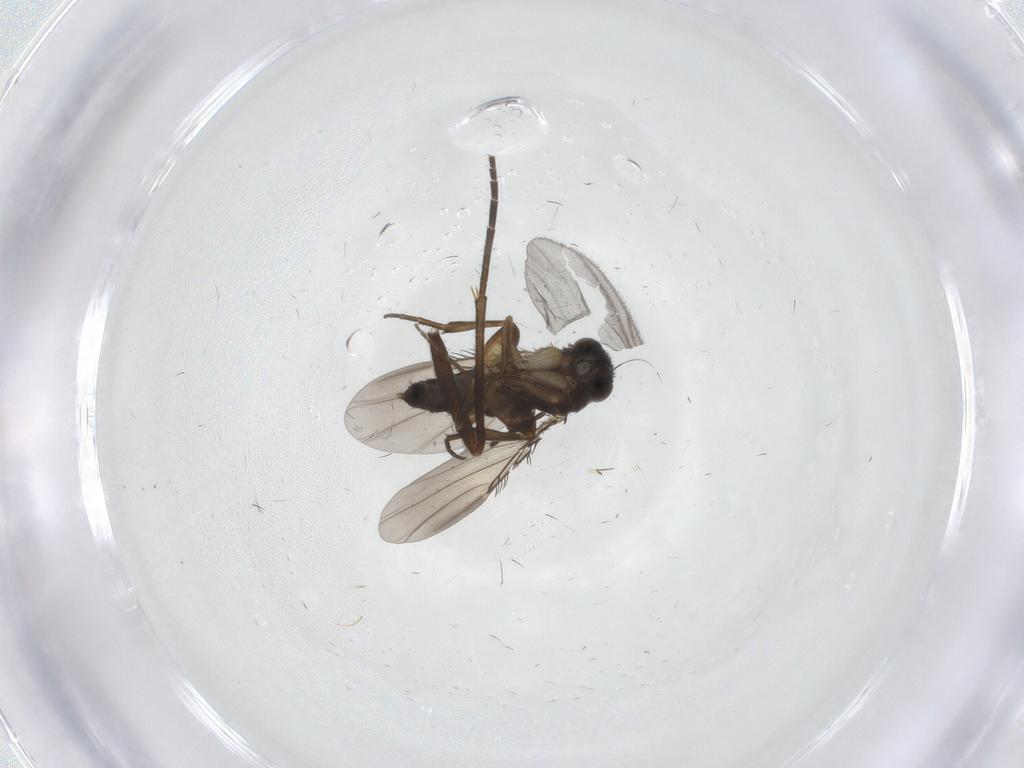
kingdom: Animalia
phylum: Arthropoda
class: Insecta
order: Diptera
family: Phoridae
